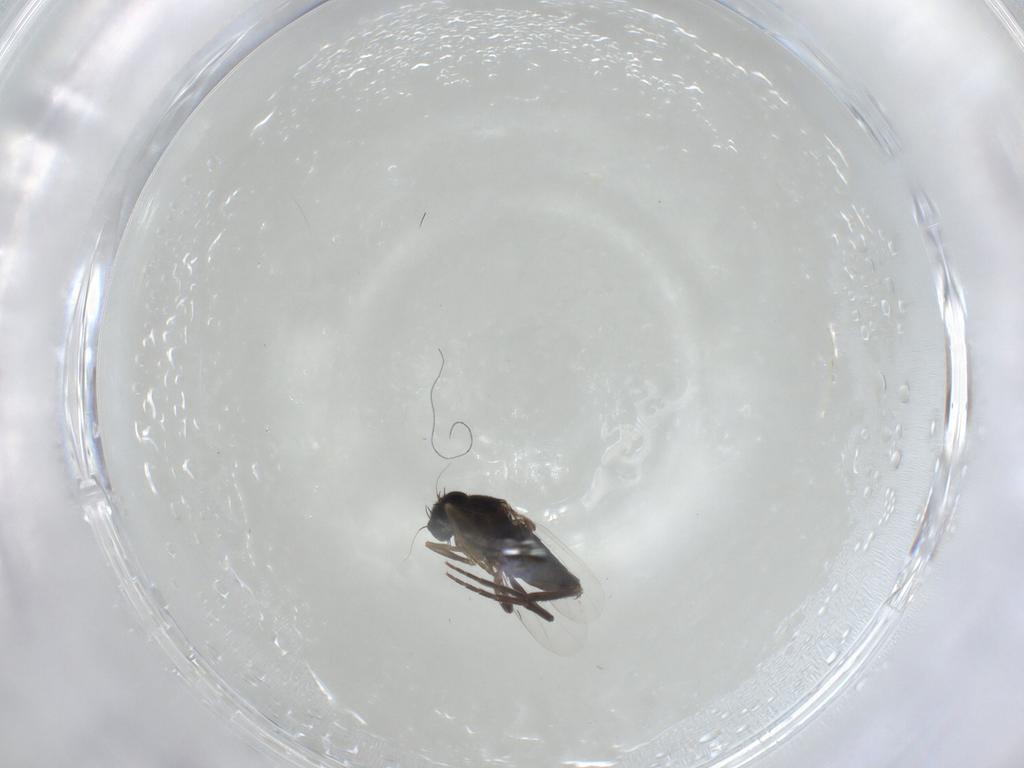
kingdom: Animalia
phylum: Arthropoda
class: Insecta
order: Diptera
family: Phoridae
